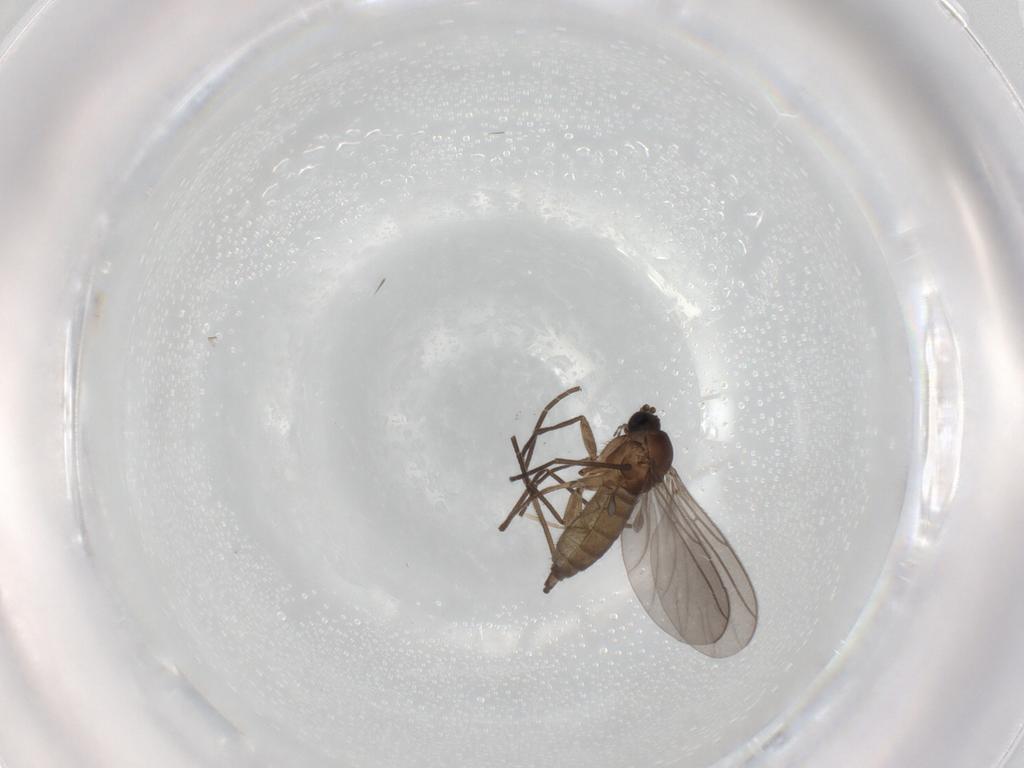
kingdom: Animalia
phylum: Arthropoda
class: Insecta
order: Diptera
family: Sciaridae
